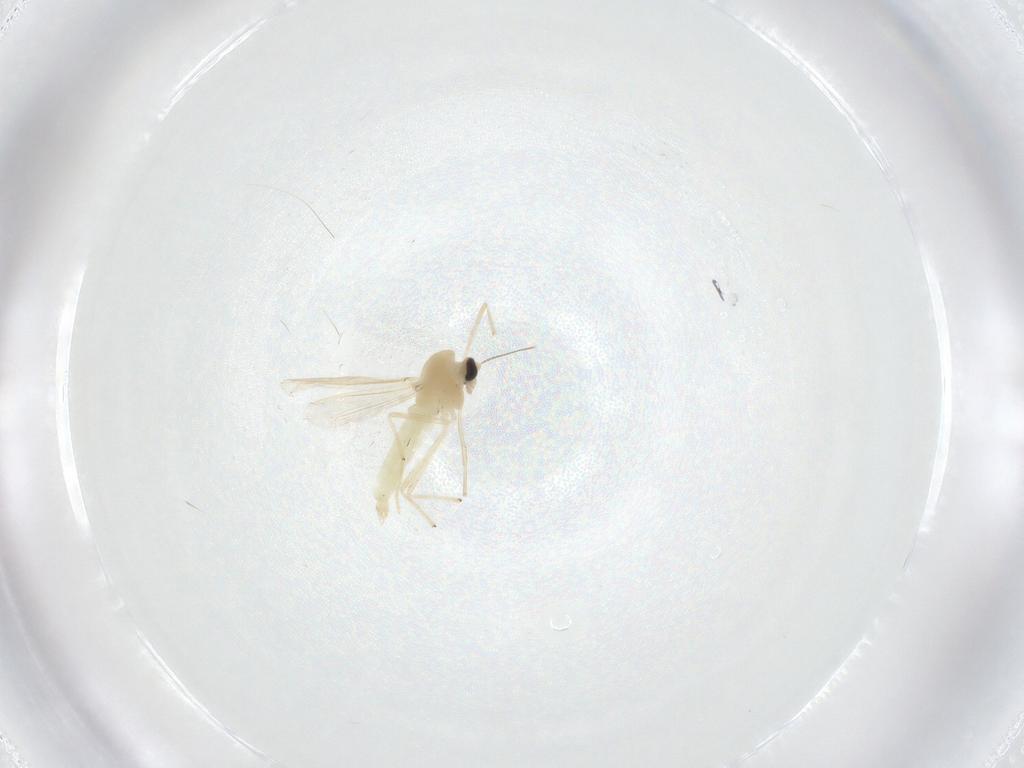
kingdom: Animalia
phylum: Arthropoda
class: Insecta
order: Diptera
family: Chironomidae
